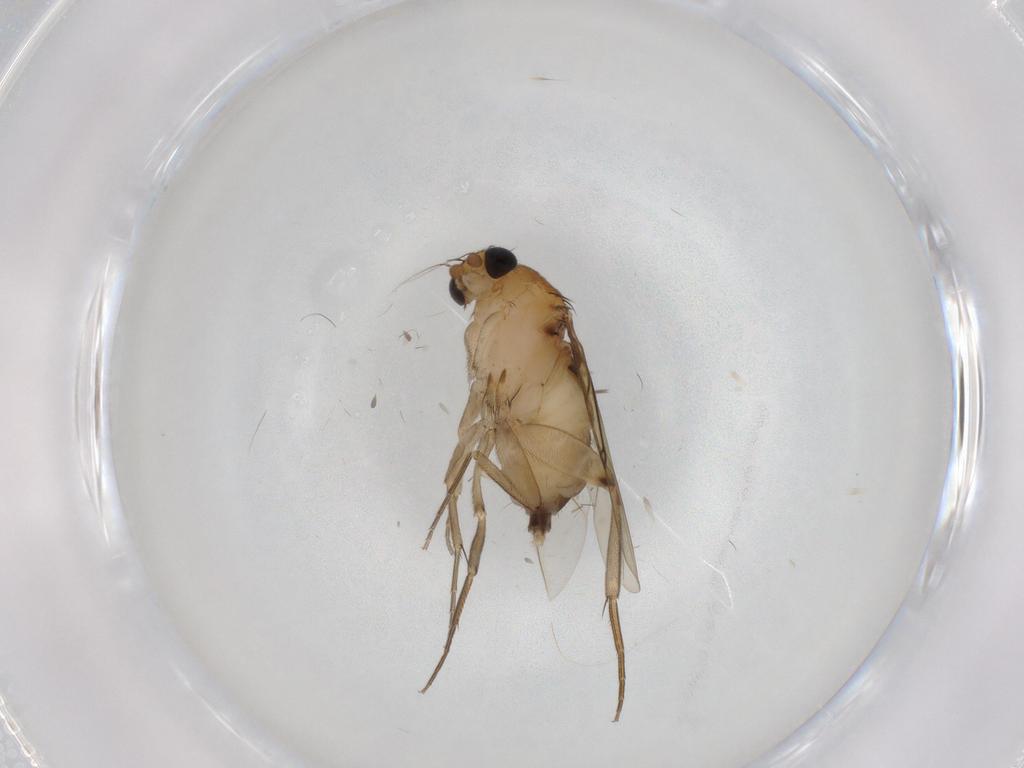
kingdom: Animalia
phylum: Arthropoda
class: Insecta
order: Diptera
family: Phoridae
